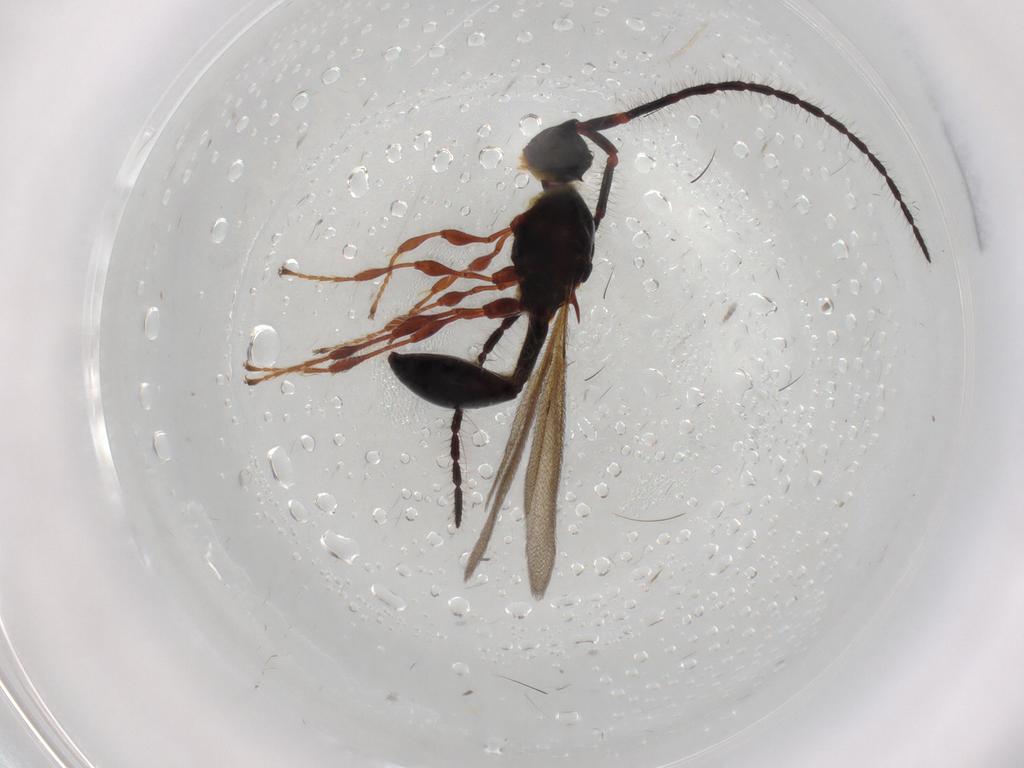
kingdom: Animalia
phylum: Arthropoda
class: Insecta
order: Hymenoptera
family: Diapriidae
